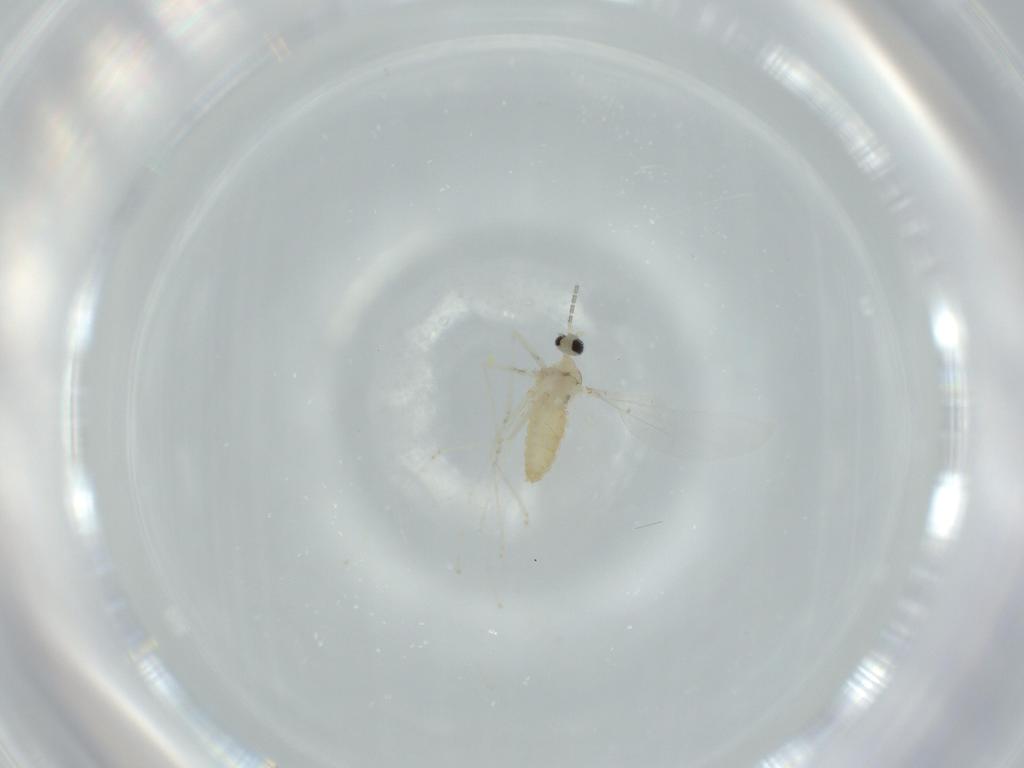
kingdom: Animalia
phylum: Arthropoda
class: Insecta
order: Diptera
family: Cecidomyiidae
